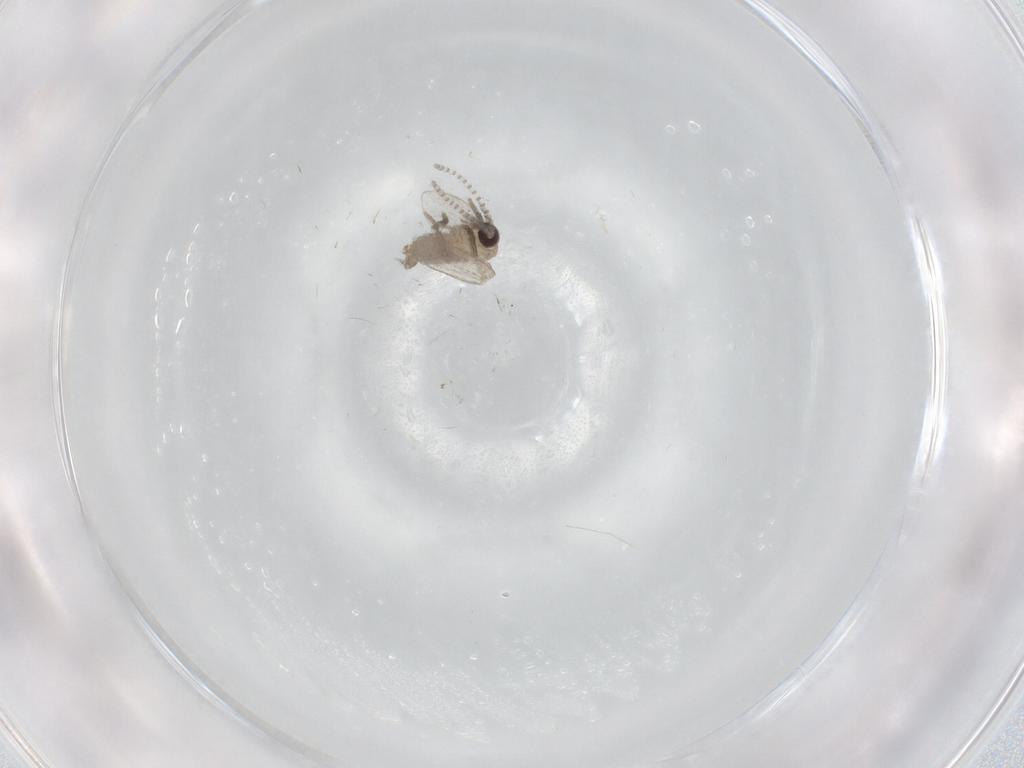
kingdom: Animalia
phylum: Arthropoda
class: Insecta
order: Diptera
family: Psychodidae
